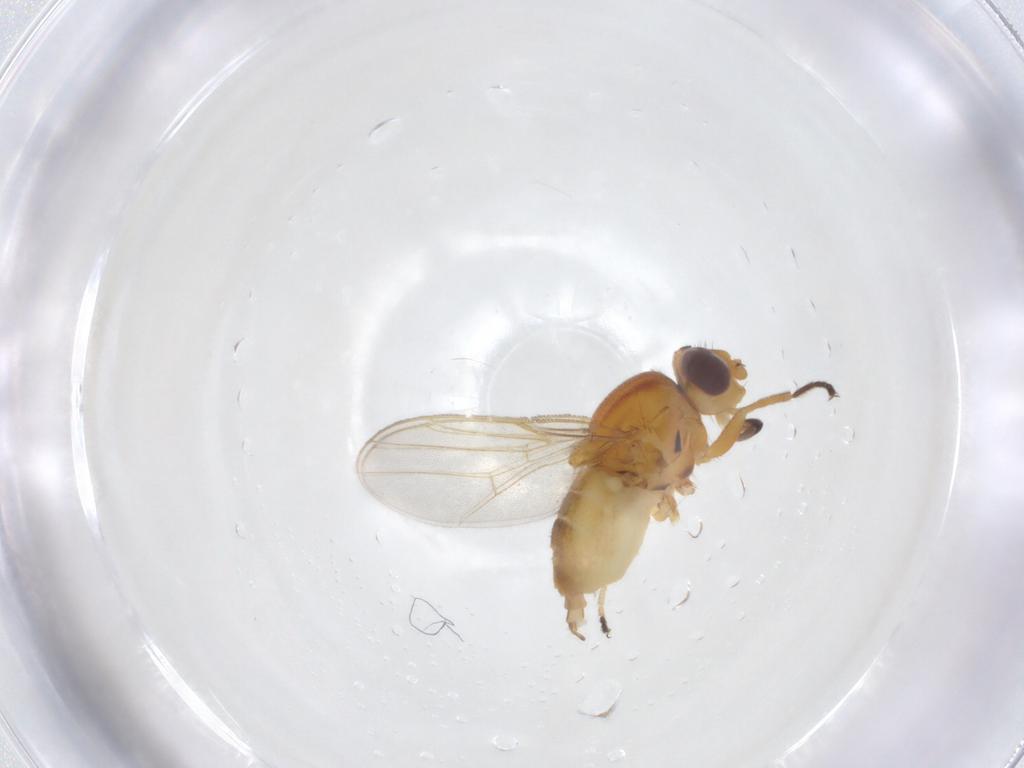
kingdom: Animalia
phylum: Arthropoda
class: Insecta
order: Diptera
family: Chloropidae
